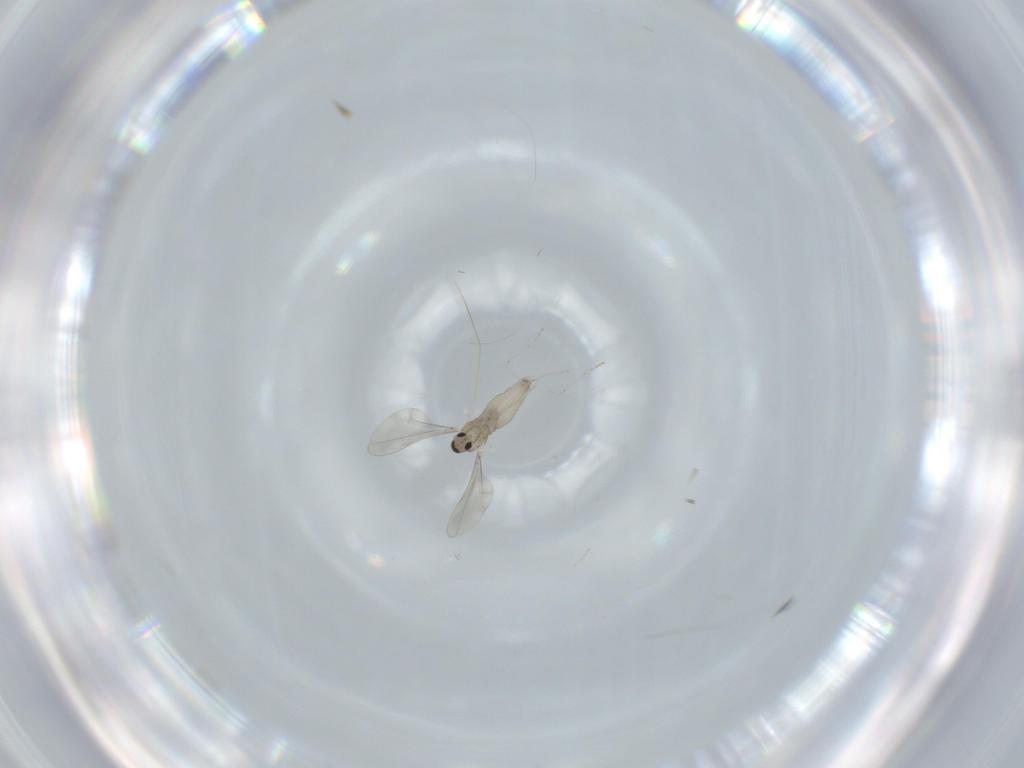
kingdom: Animalia
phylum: Arthropoda
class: Insecta
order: Diptera
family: Cecidomyiidae
